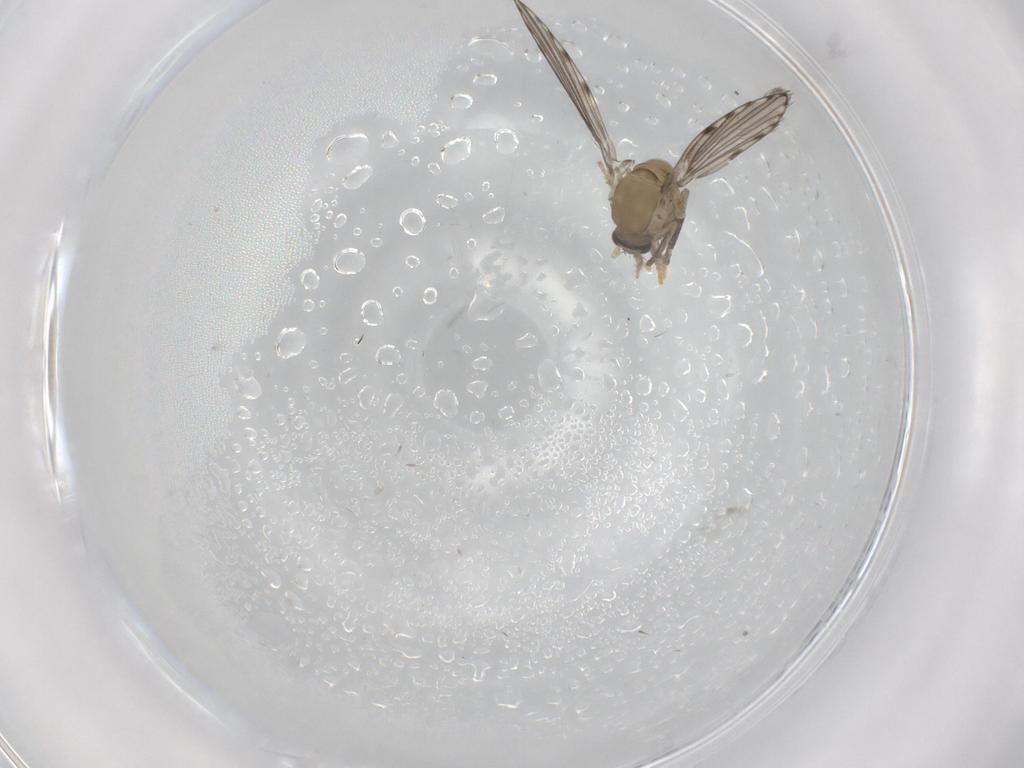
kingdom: Animalia
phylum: Arthropoda
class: Insecta
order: Diptera
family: Psychodidae
